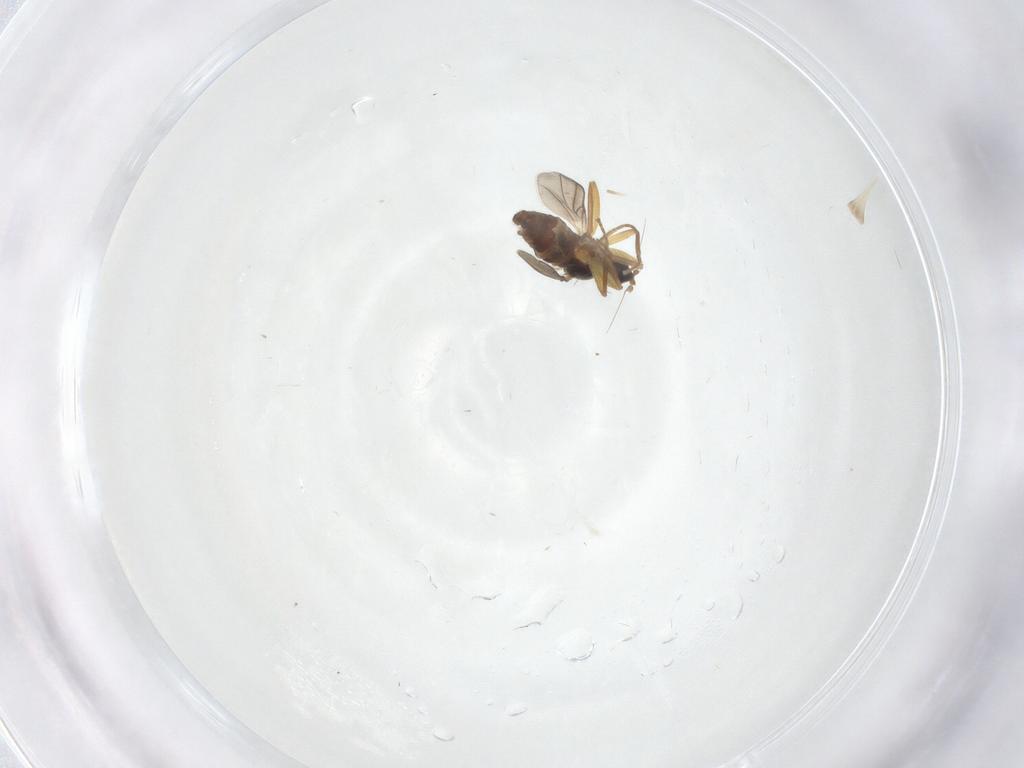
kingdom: Animalia
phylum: Arthropoda
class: Insecta
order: Diptera
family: Hybotidae
